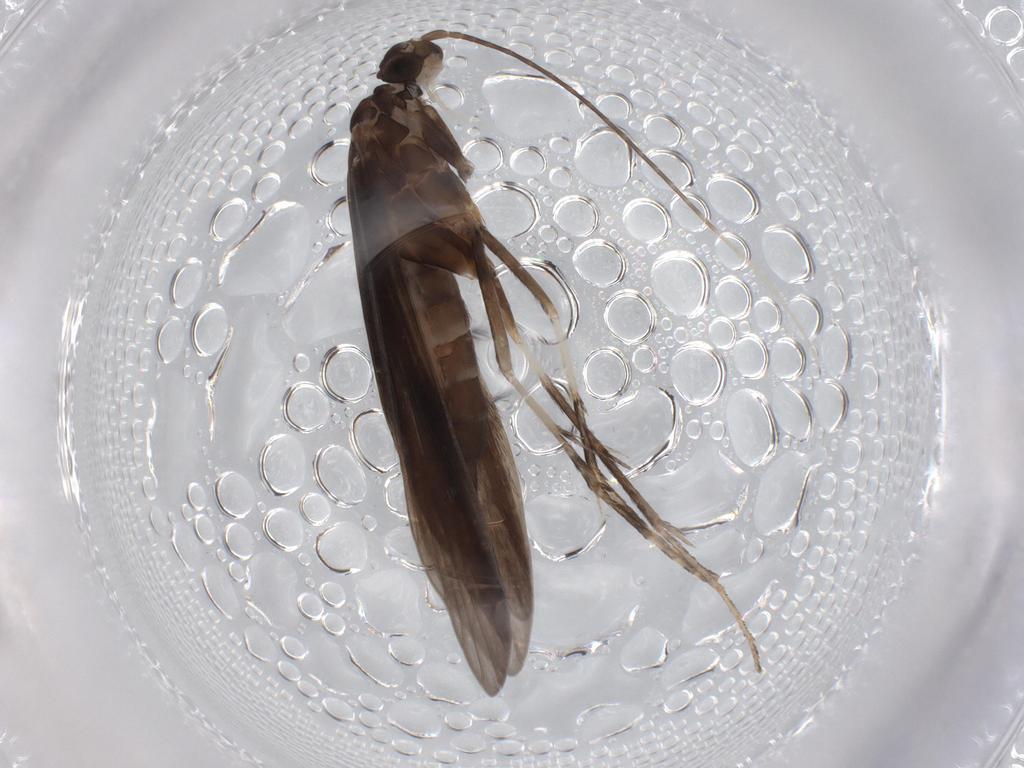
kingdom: Animalia
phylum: Arthropoda
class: Insecta
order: Trichoptera
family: Xiphocentronidae
